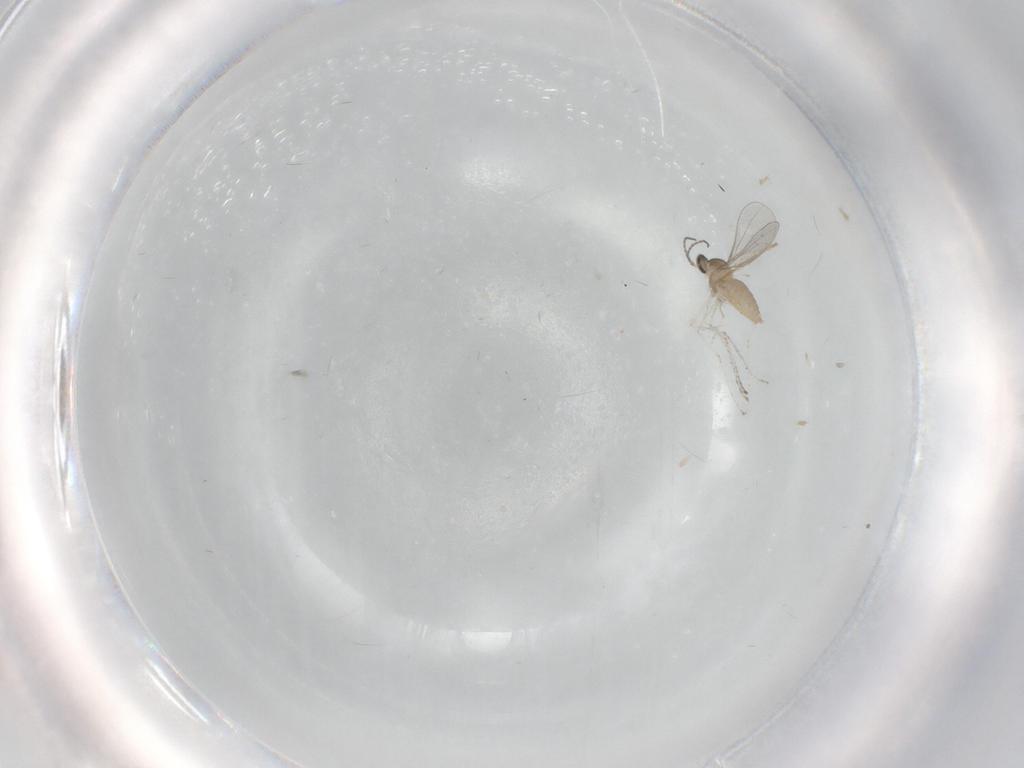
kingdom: Animalia
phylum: Arthropoda
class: Insecta
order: Diptera
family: Cecidomyiidae
